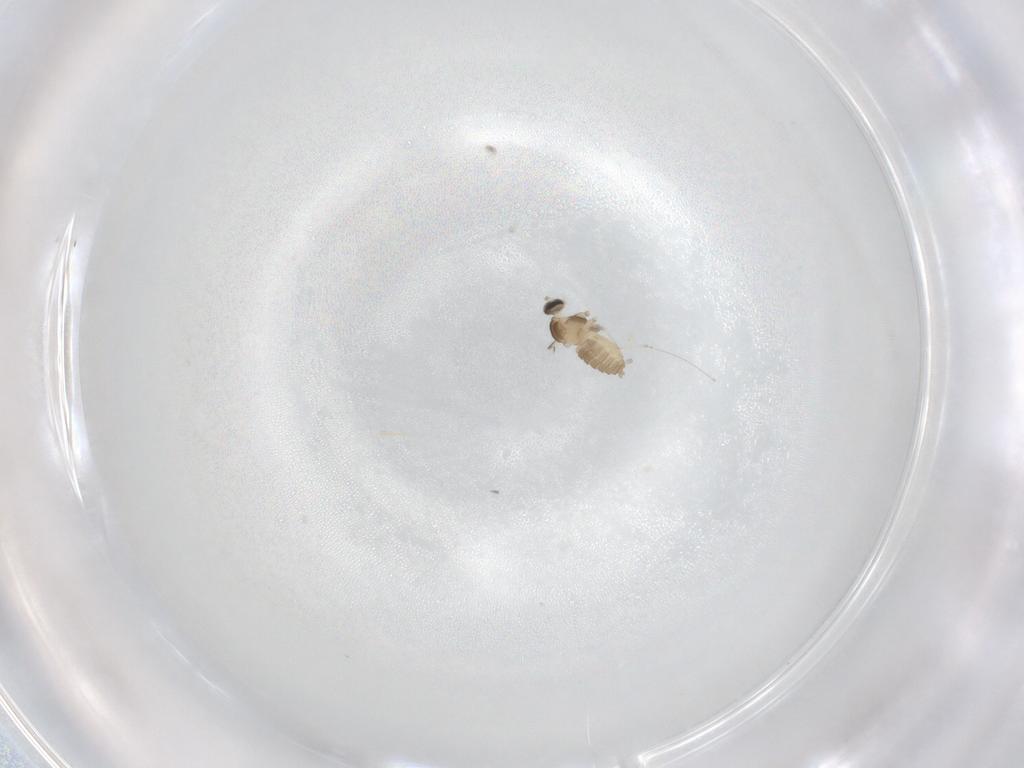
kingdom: Animalia
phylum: Arthropoda
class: Insecta
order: Diptera
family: Cecidomyiidae
